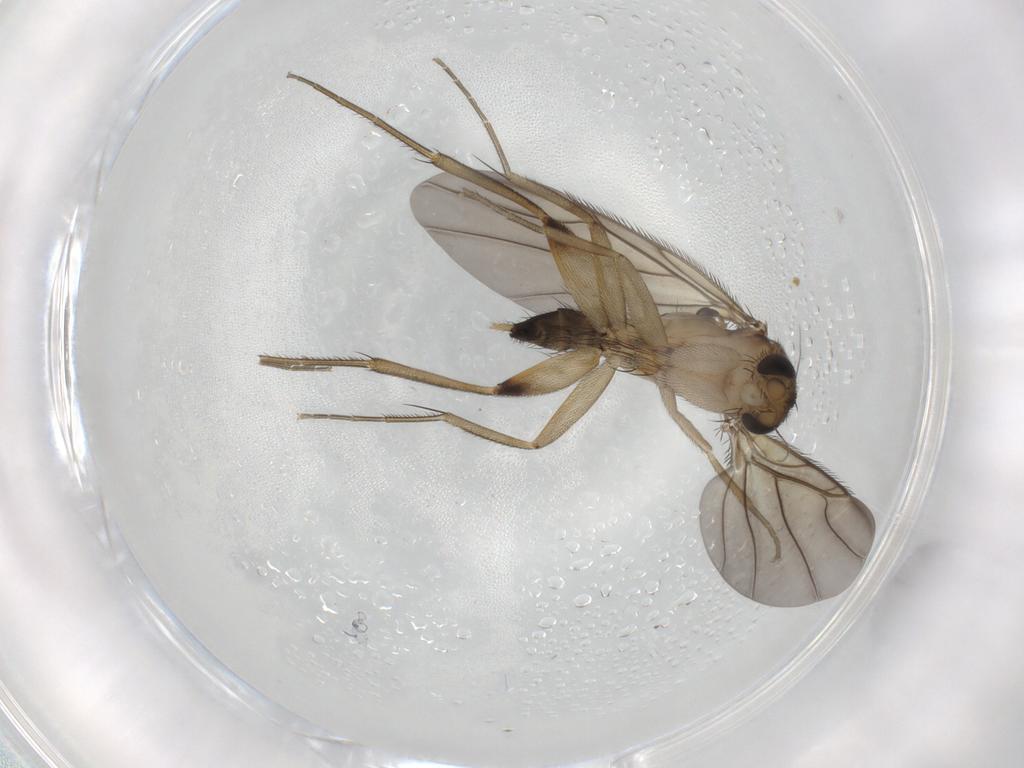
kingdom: Animalia
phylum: Arthropoda
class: Insecta
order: Diptera
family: Phoridae
